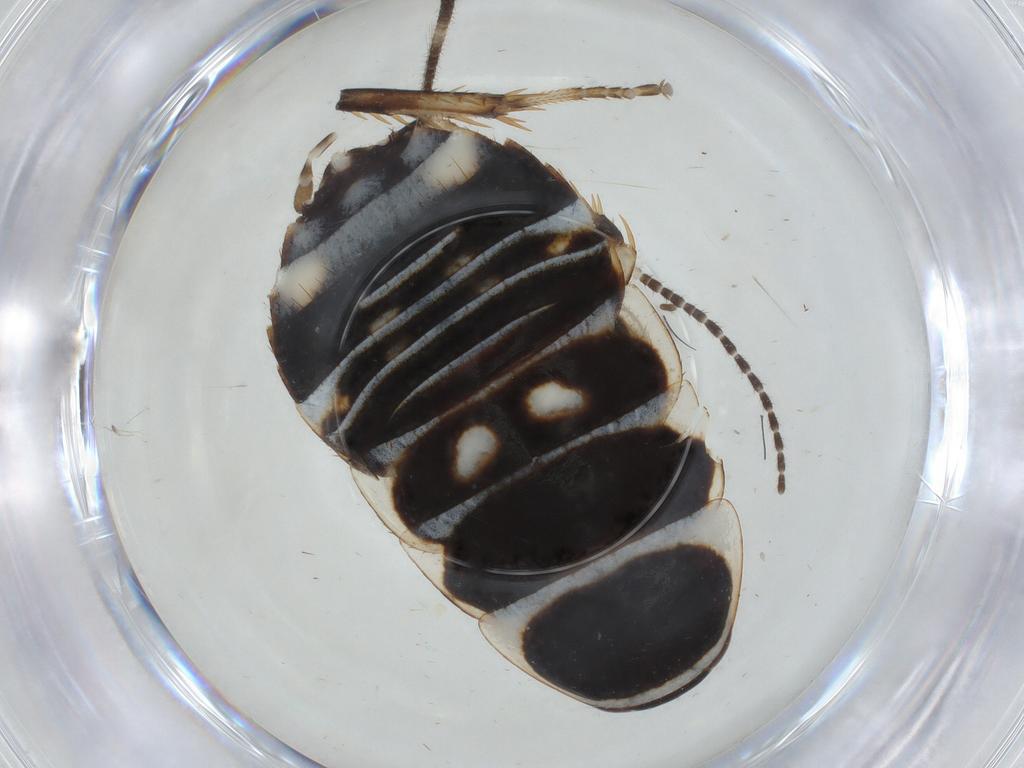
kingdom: Animalia
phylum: Arthropoda
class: Insecta
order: Blattodea
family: Blaberidae
